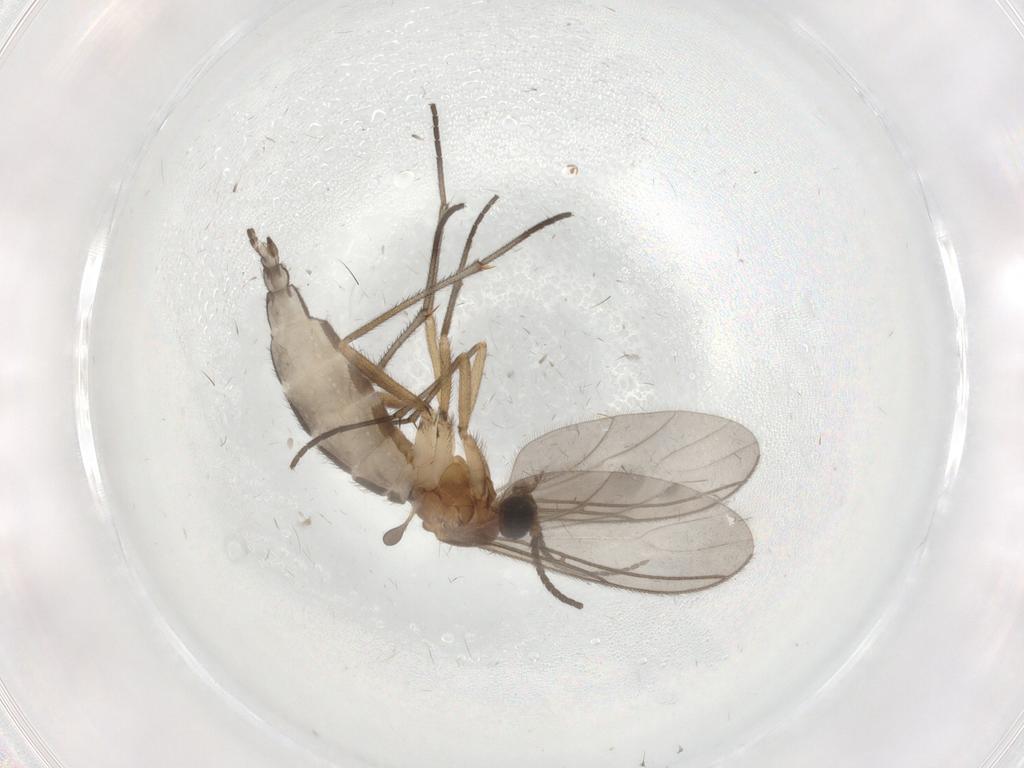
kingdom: Animalia
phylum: Arthropoda
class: Insecta
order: Diptera
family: Sciaridae
